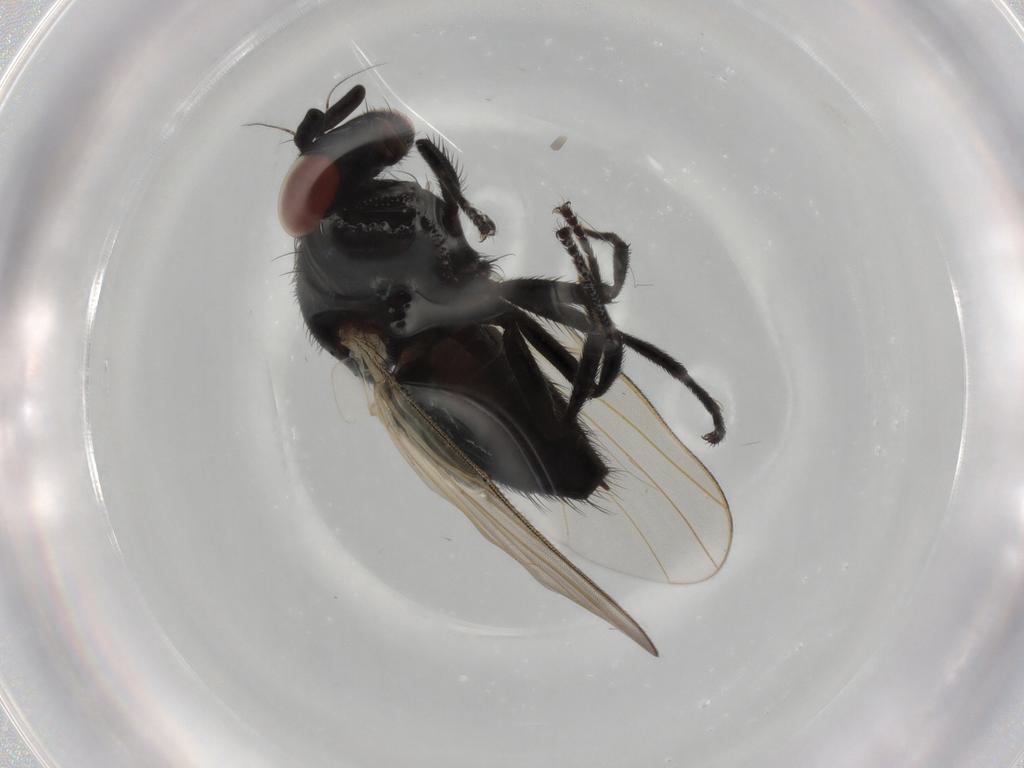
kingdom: Animalia
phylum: Arthropoda
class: Insecta
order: Diptera
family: Lonchaeidae
